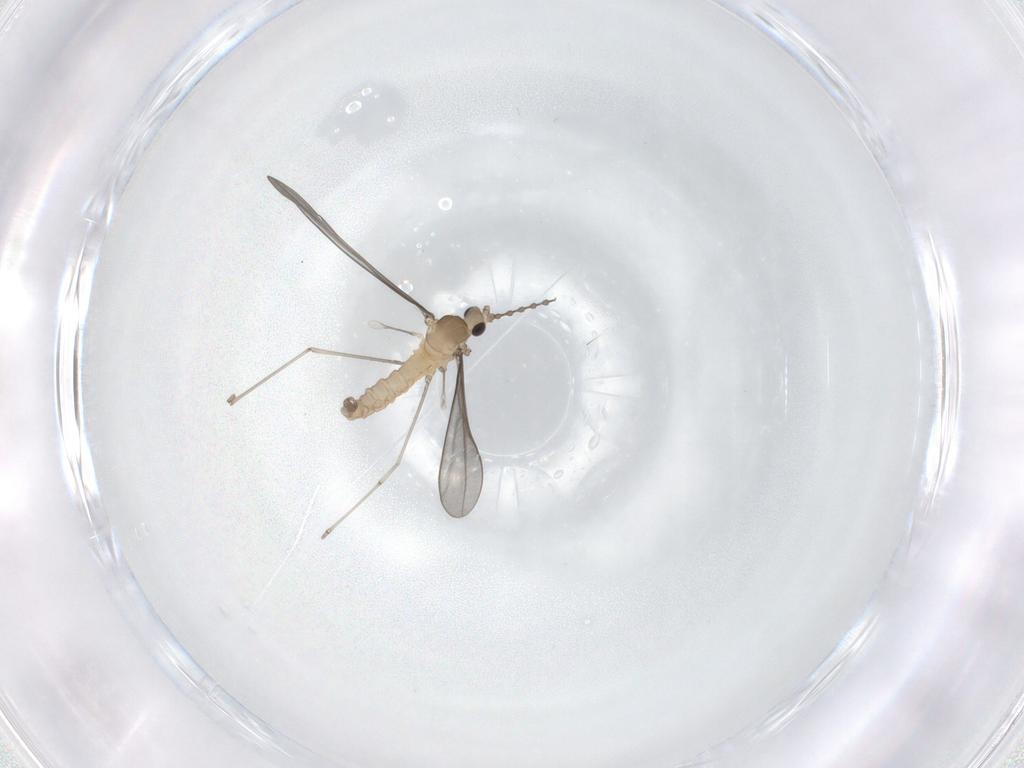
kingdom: Animalia
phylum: Arthropoda
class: Insecta
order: Diptera
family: Cecidomyiidae
